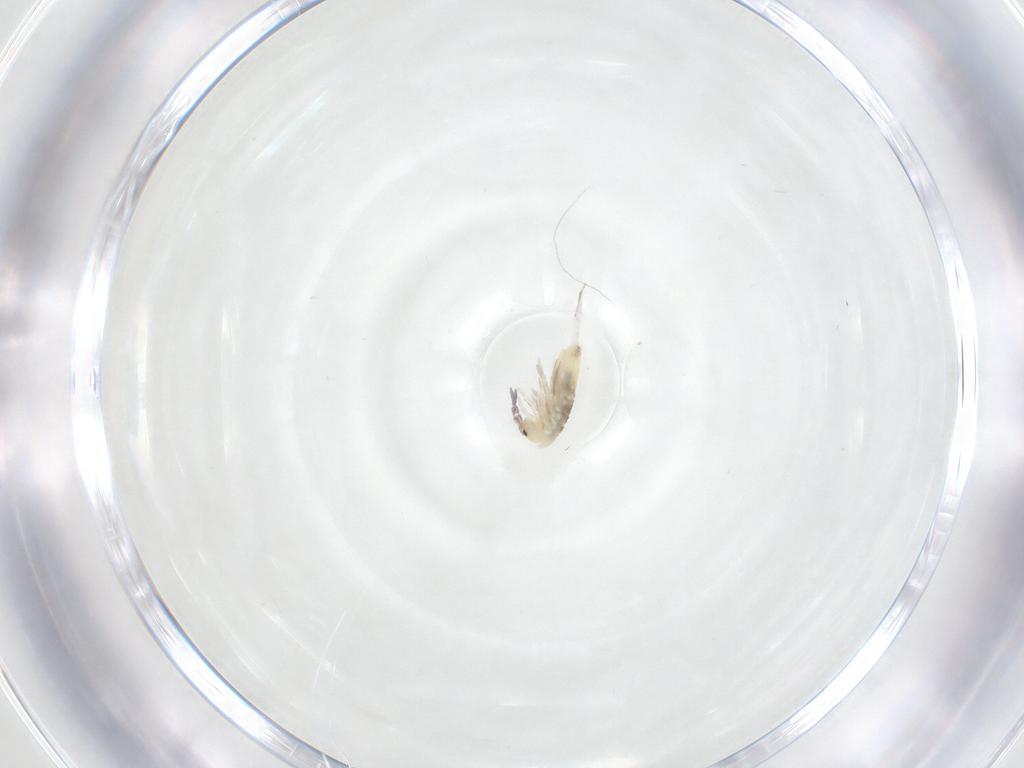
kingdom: Animalia
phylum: Arthropoda
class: Collembola
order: Entomobryomorpha
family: Entomobryidae
